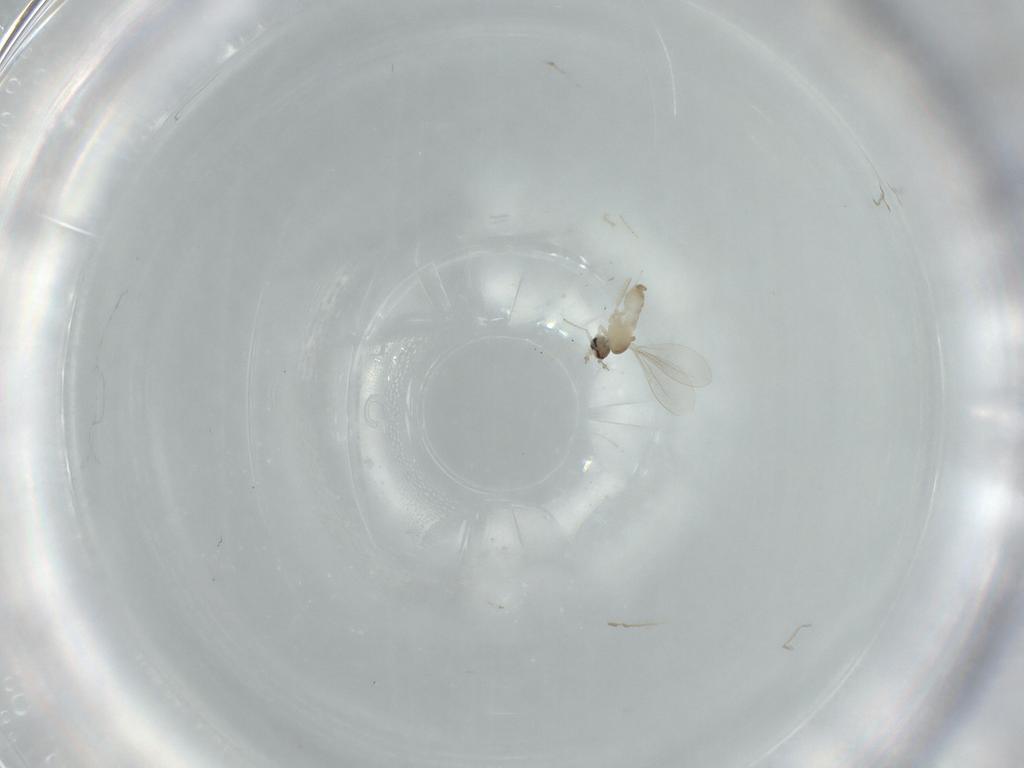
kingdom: Animalia
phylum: Arthropoda
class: Insecta
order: Diptera
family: Cecidomyiidae
